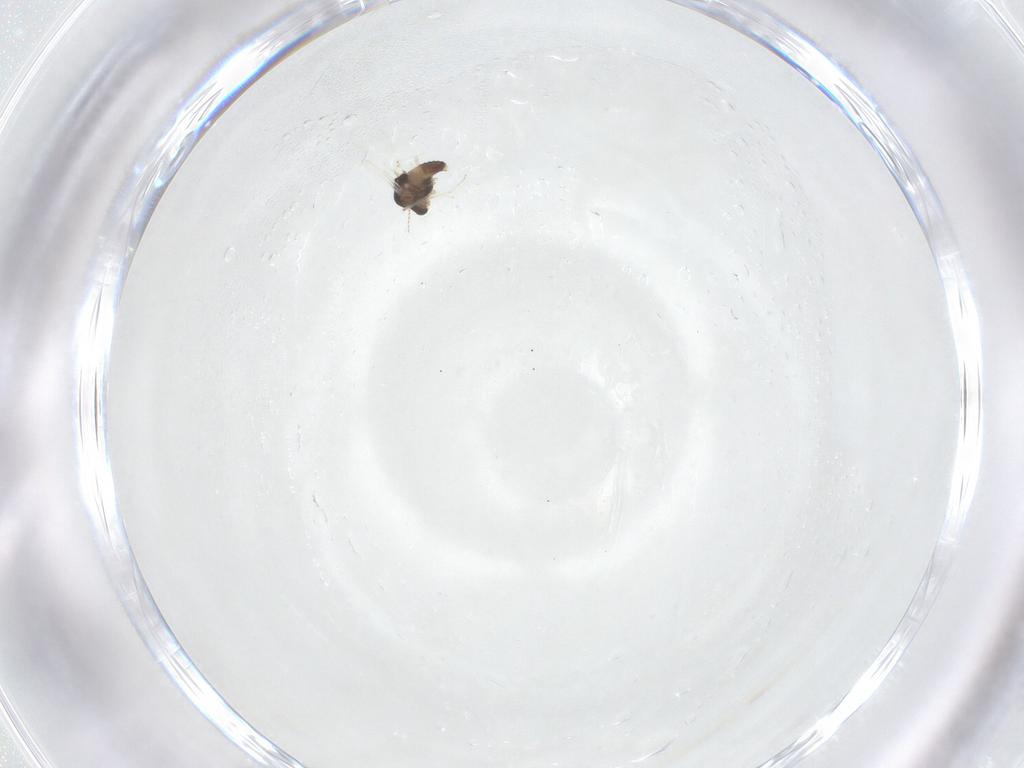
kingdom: Animalia
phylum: Arthropoda
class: Insecta
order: Diptera
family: Chironomidae
